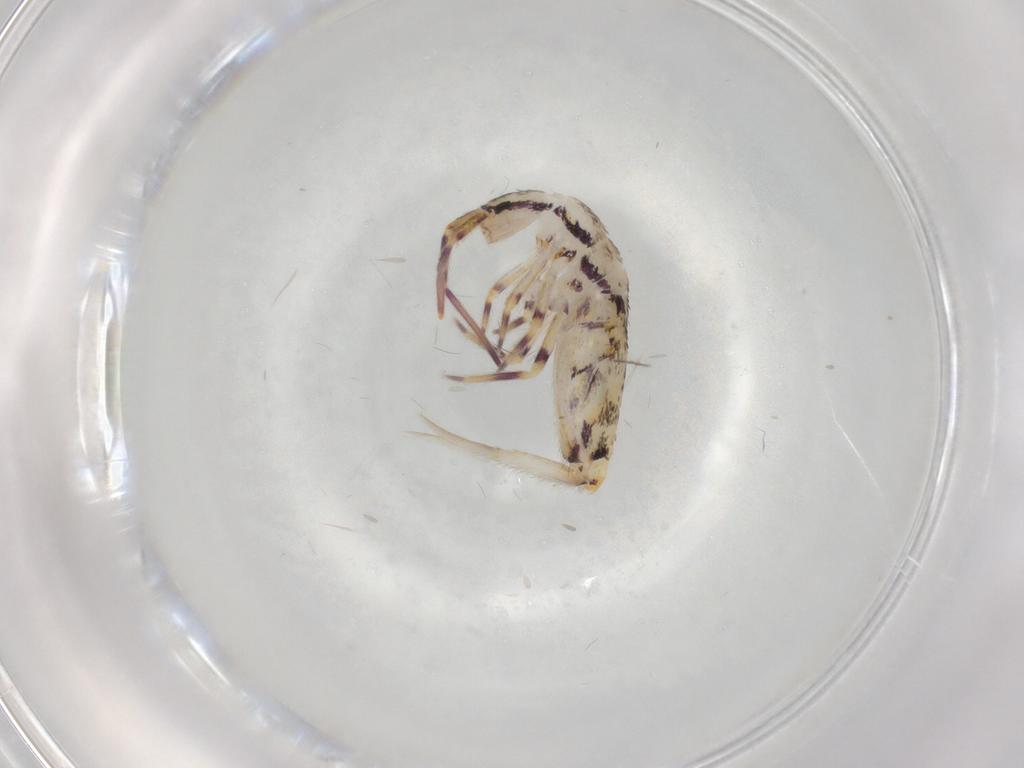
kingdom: Animalia
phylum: Arthropoda
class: Collembola
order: Entomobryomorpha
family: Entomobryidae
